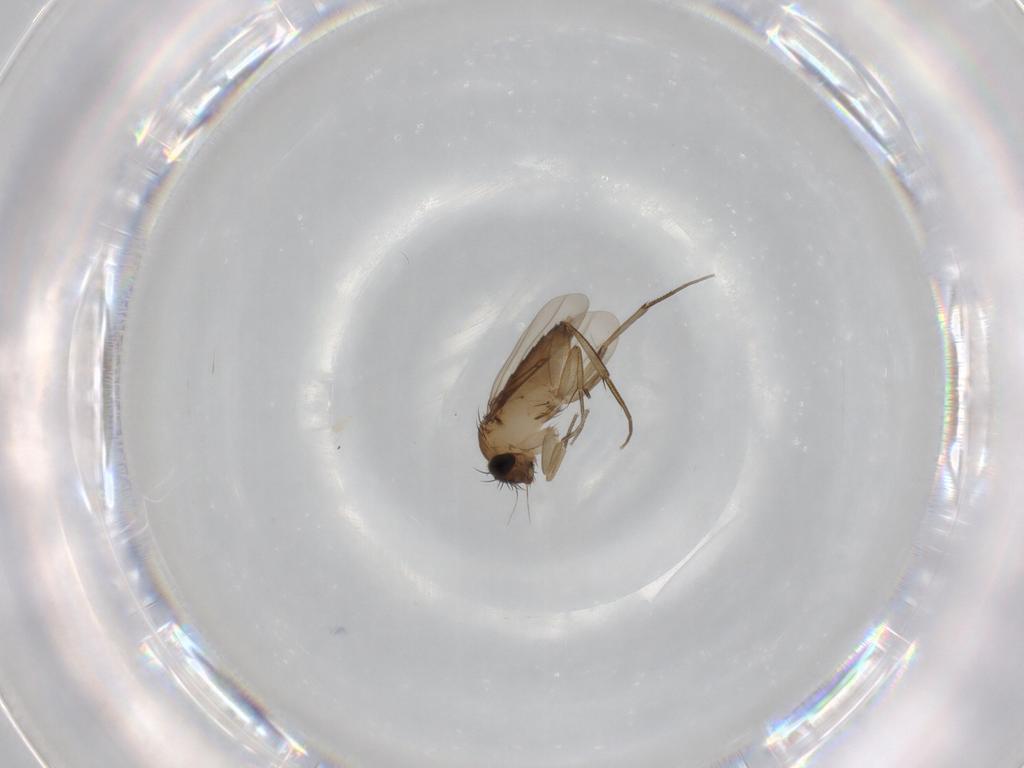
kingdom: Animalia
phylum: Arthropoda
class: Insecta
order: Diptera
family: Phoridae
